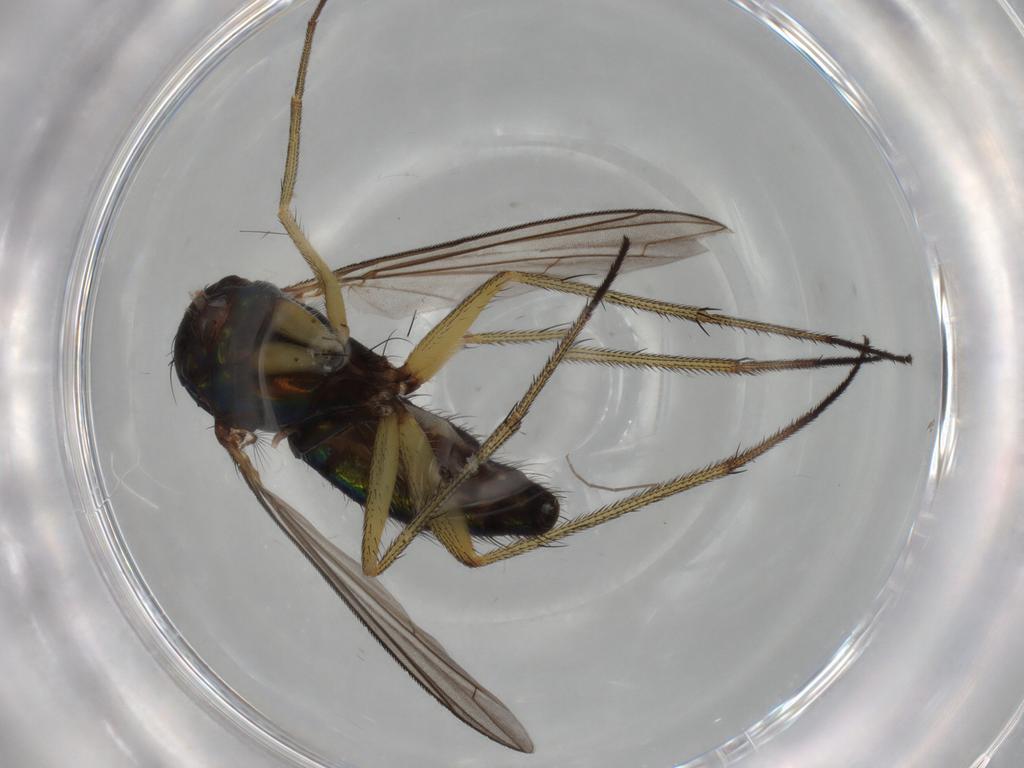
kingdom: Animalia
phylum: Arthropoda
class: Insecta
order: Diptera
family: Dolichopodidae
